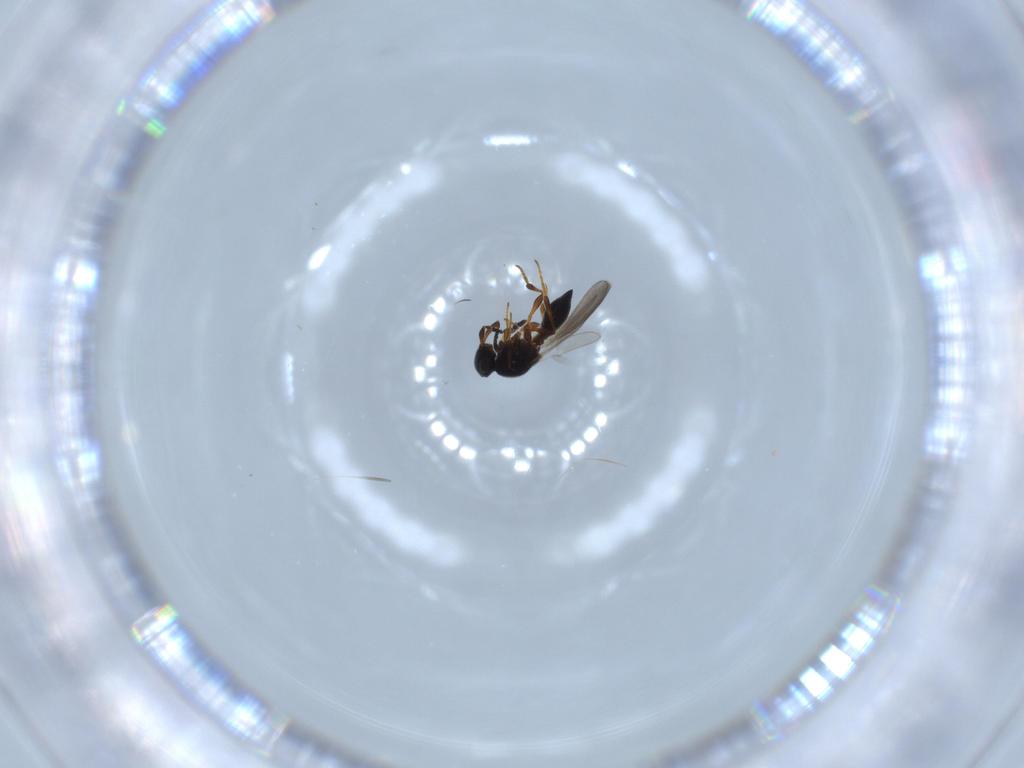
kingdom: Animalia
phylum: Arthropoda
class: Insecta
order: Hymenoptera
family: Platygastridae
